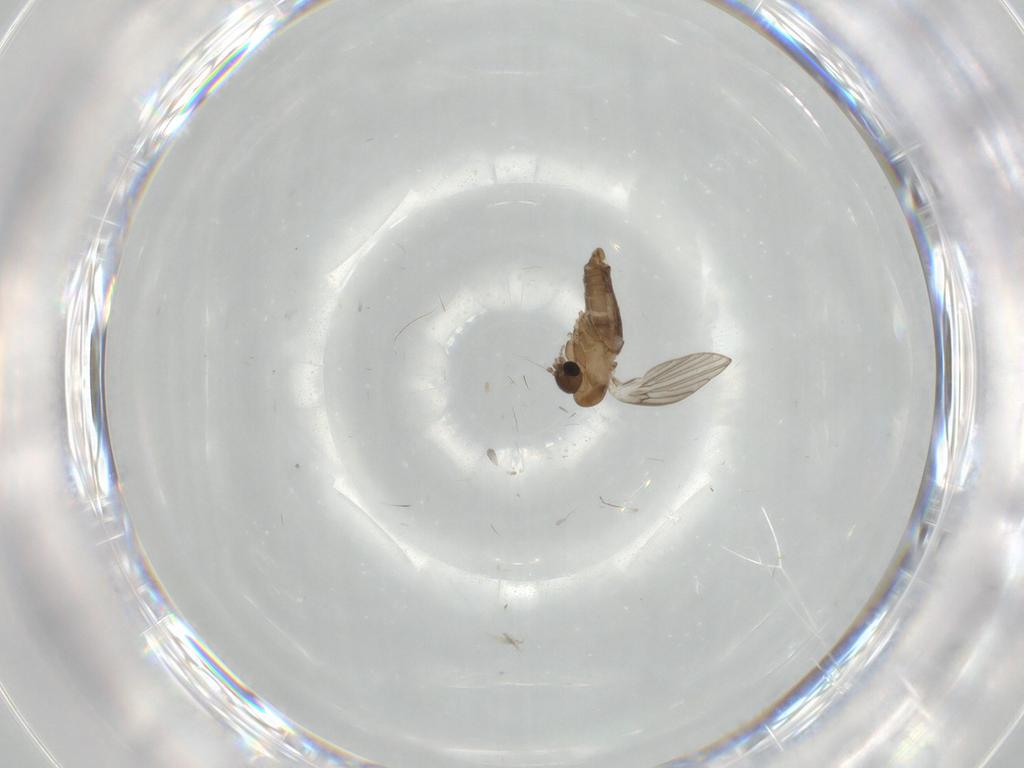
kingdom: Animalia
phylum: Arthropoda
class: Insecta
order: Diptera
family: Psychodidae
